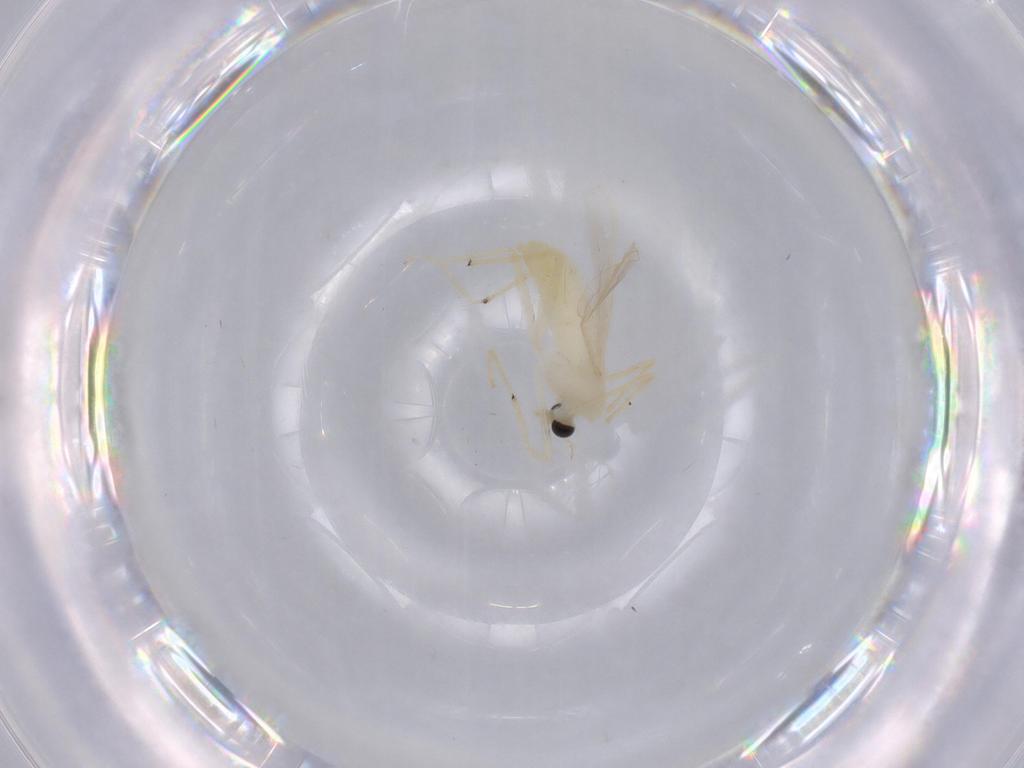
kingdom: Animalia
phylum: Arthropoda
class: Insecta
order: Diptera
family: Chironomidae
